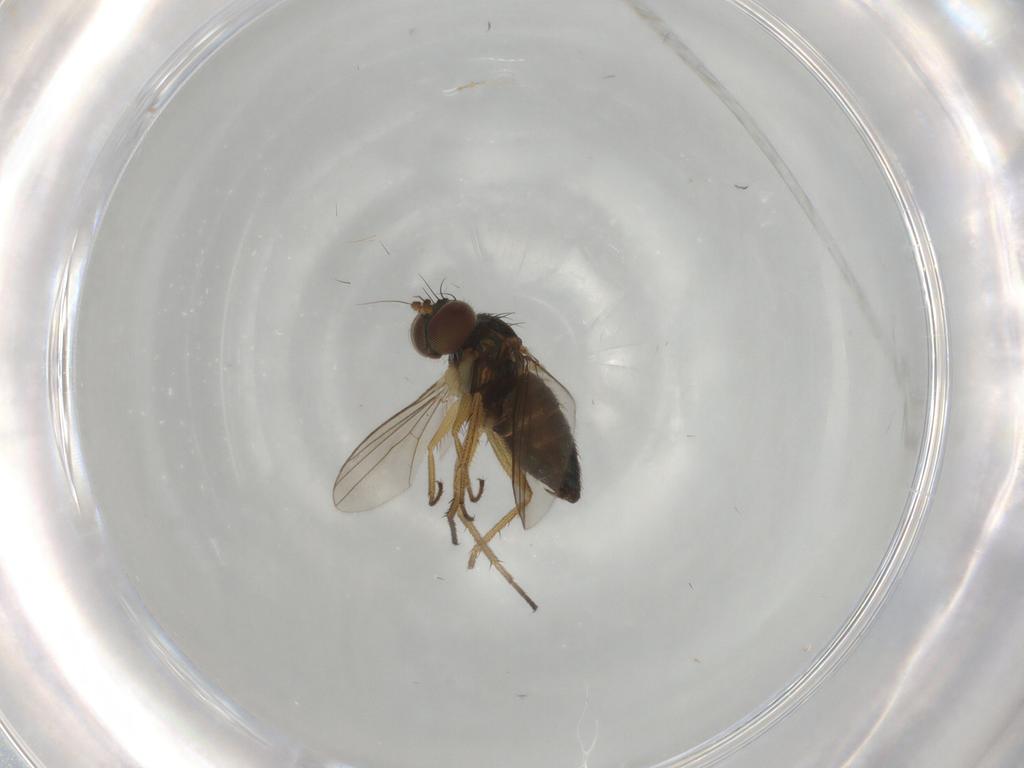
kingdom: Animalia
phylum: Arthropoda
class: Insecta
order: Diptera
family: Dolichopodidae
